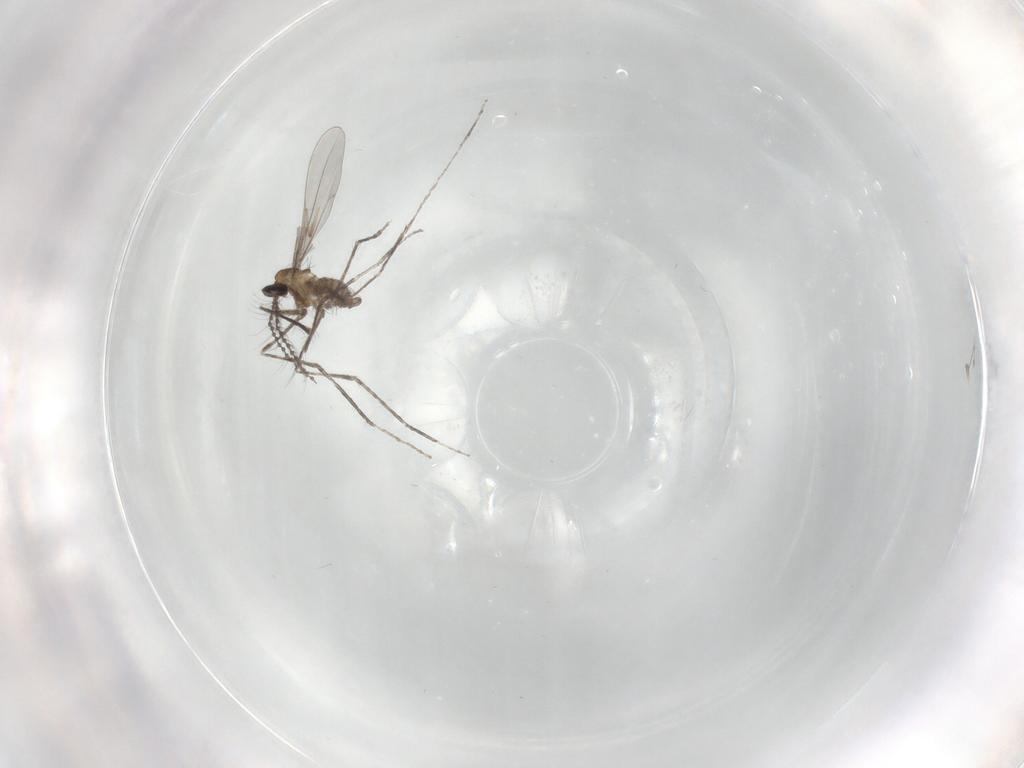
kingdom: Animalia
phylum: Arthropoda
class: Insecta
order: Diptera
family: Cecidomyiidae
